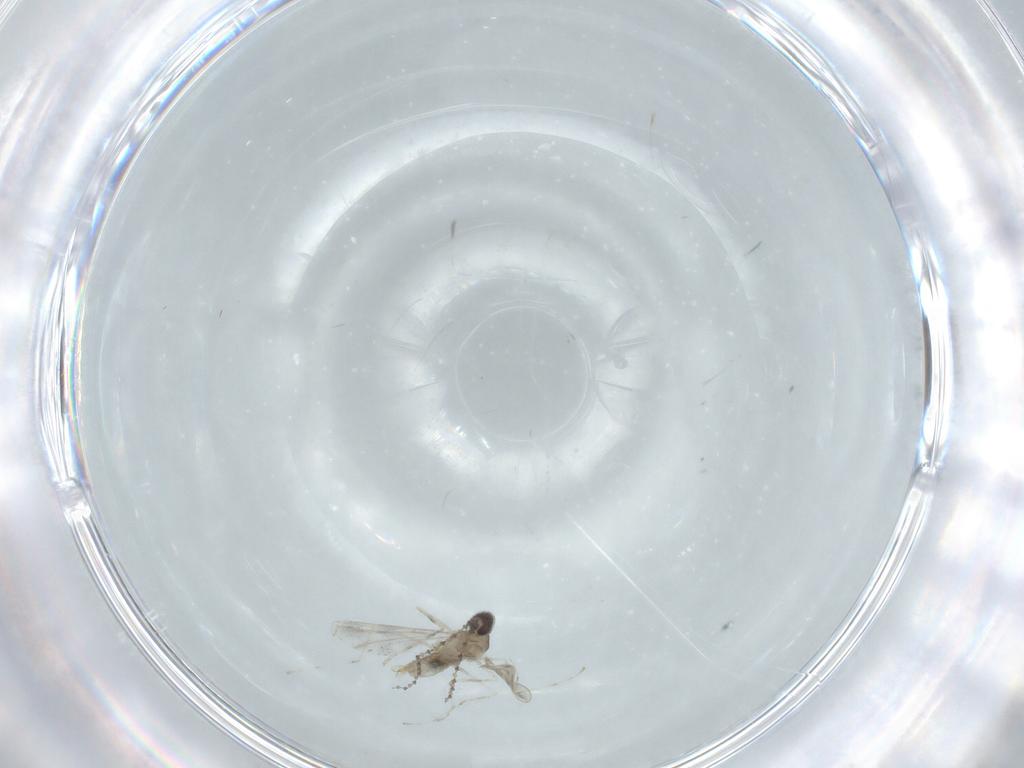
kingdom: Animalia
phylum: Arthropoda
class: Insecta
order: Diptera
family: Cecidomyiidae
